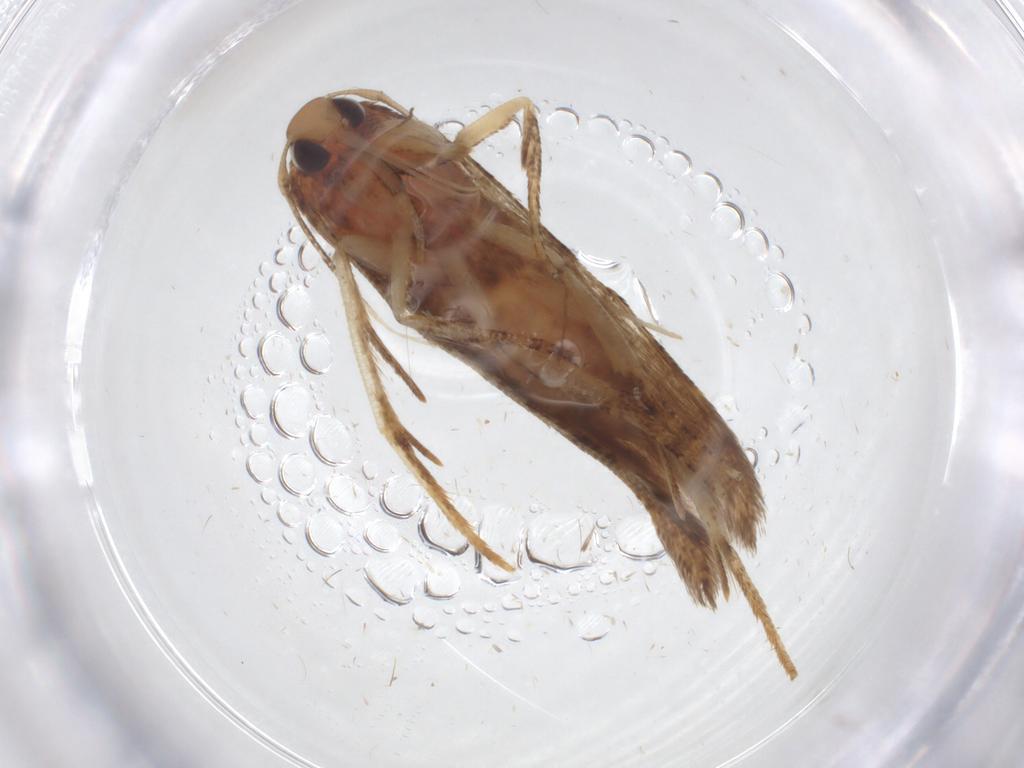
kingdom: Animalia
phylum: Arthropoda
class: Insecta
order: Lepidoptera
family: Cosmopterigidae
